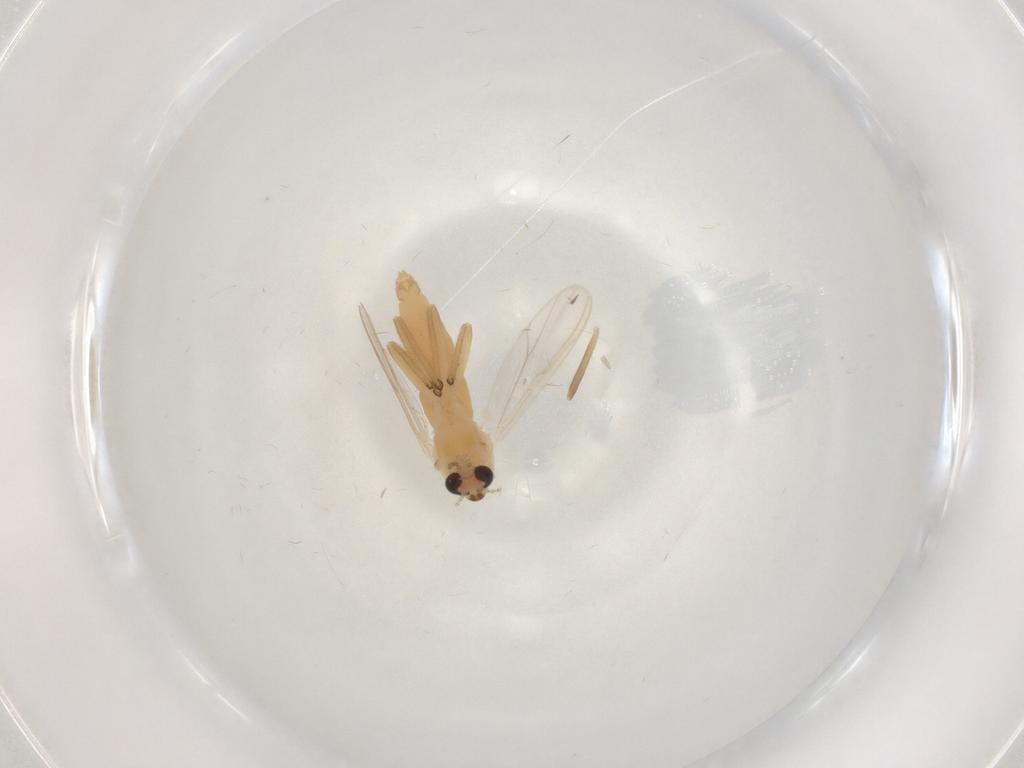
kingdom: Animalia
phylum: Arthropoda
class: Insecta
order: Diptera
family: Chironomidae
